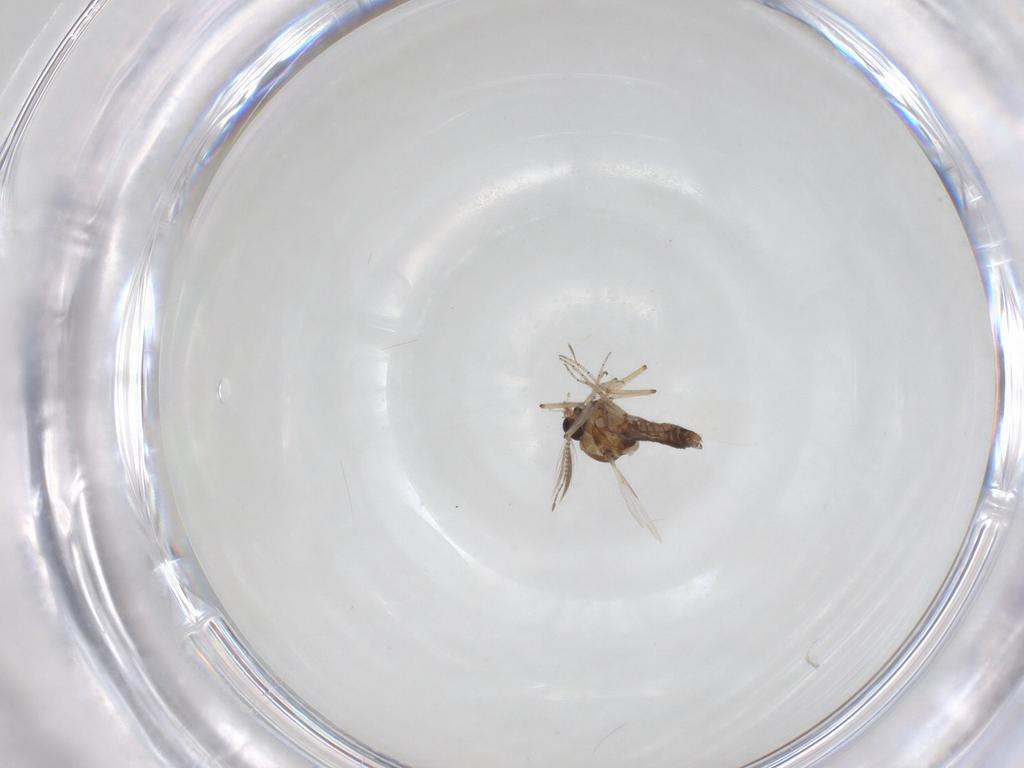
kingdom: Animalia
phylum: Arthropoda
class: Insecta
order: Diptera
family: Ceratopogonidae
